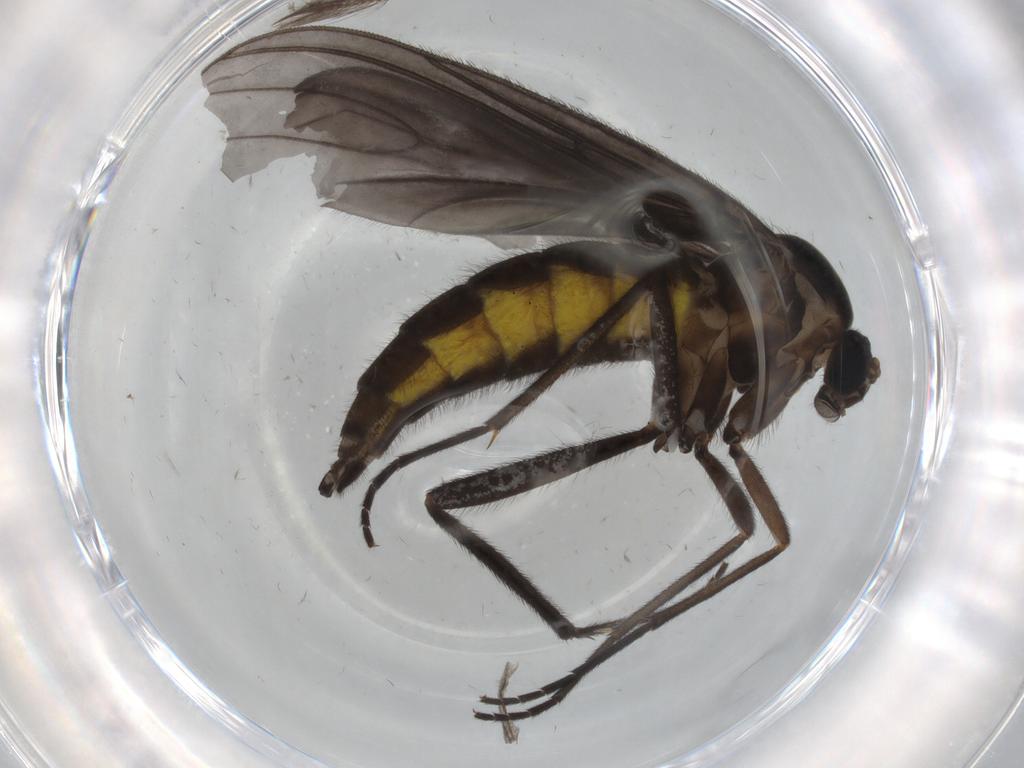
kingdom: Animalia
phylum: Arthropoda
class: Insecta
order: Diptera
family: Sciaridae
